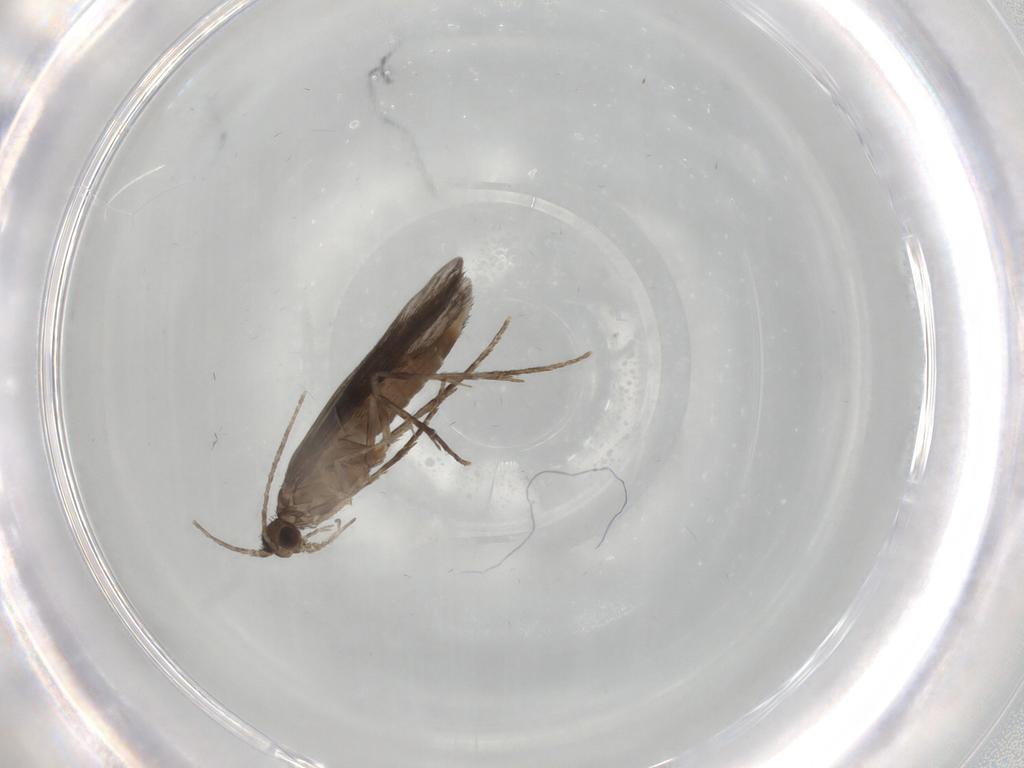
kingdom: Animalia
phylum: Arthropoda
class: Insecta
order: Trichoptera
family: Xiphocentronidae
